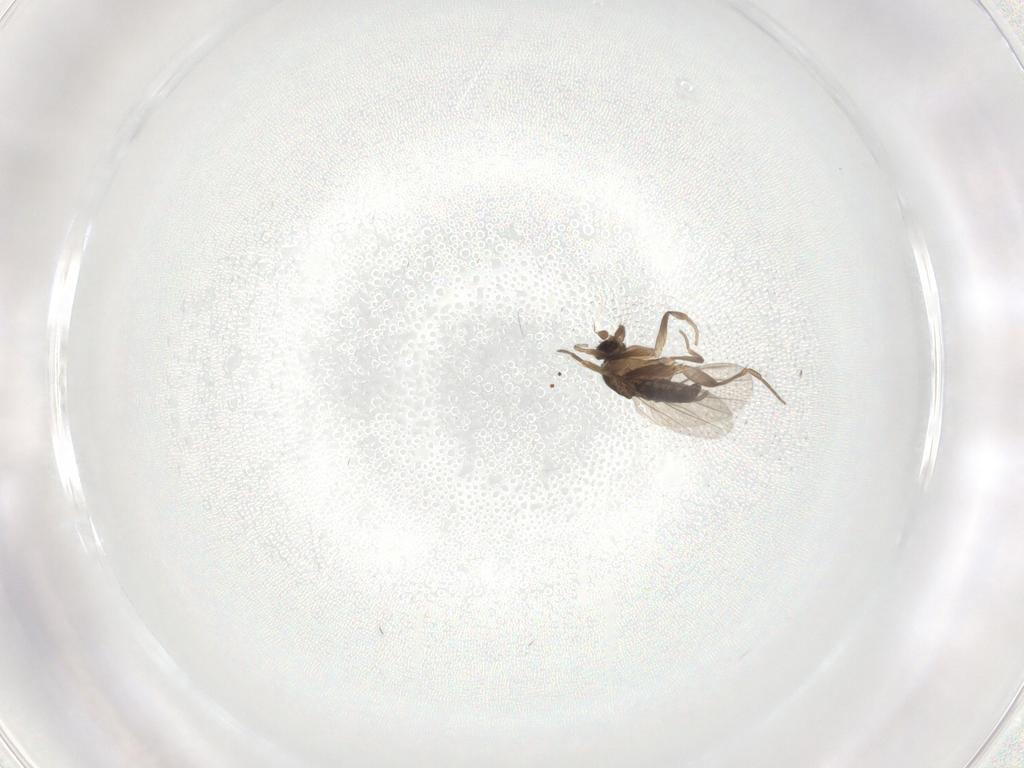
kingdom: Animalia
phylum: Arthropoda
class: Insecta
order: Diptera
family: Phoridae
